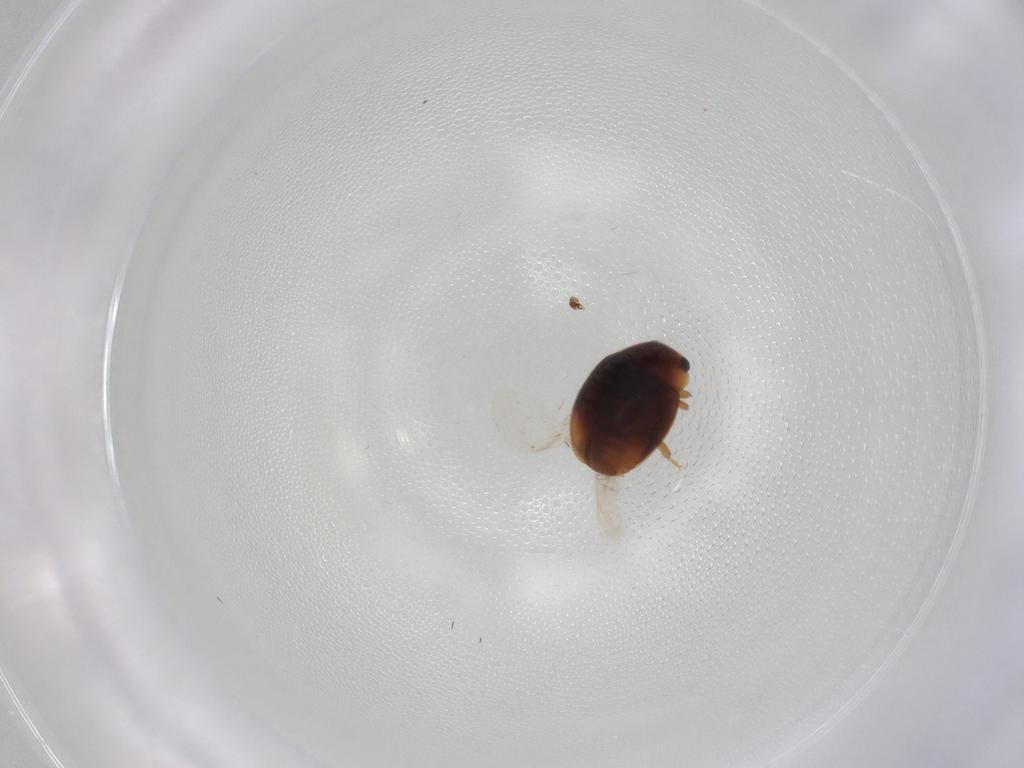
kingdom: Animalia
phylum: Arthropoda
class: Insecta
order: Coleoptera
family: Coccinellidae
